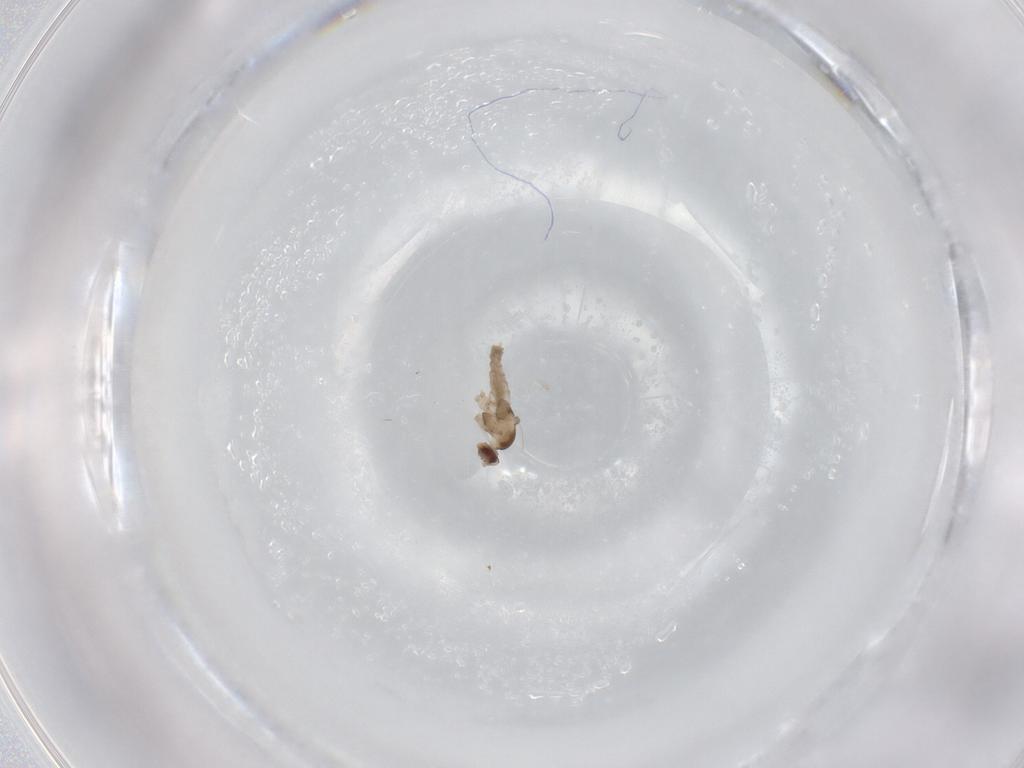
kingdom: Animalia
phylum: Arthropoda
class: Insecta
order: Diptera
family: Cecidomyiidae
